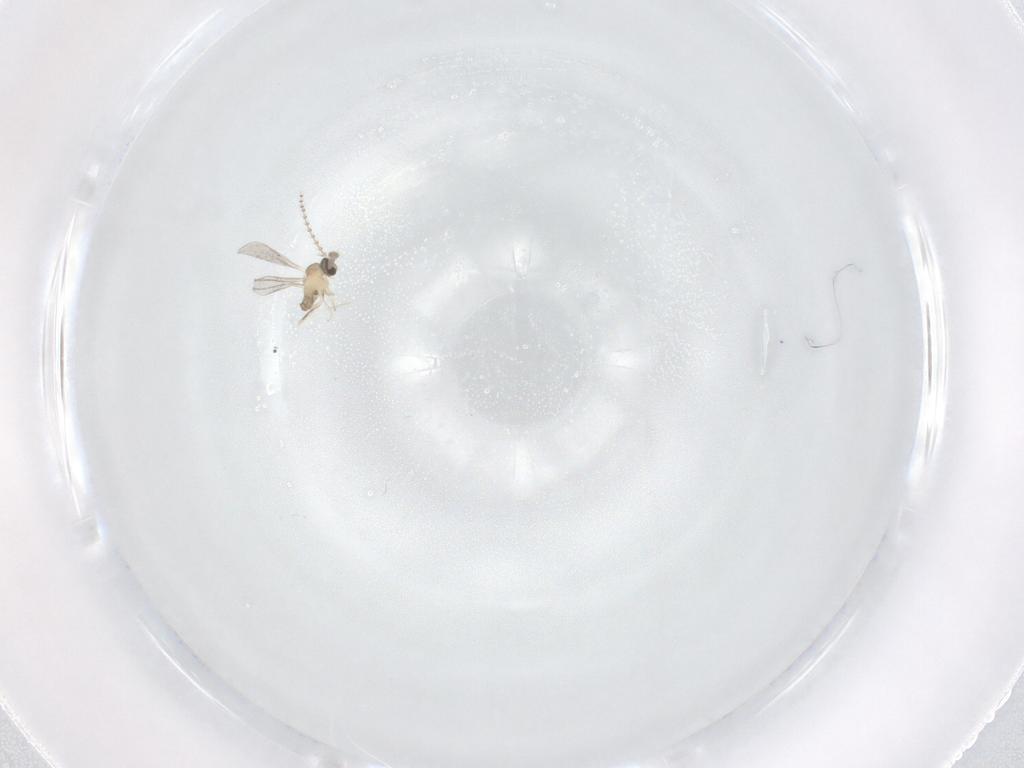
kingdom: Animalia
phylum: Arthropoda
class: Insecta
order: Diptera
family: Cecidomyiidae
